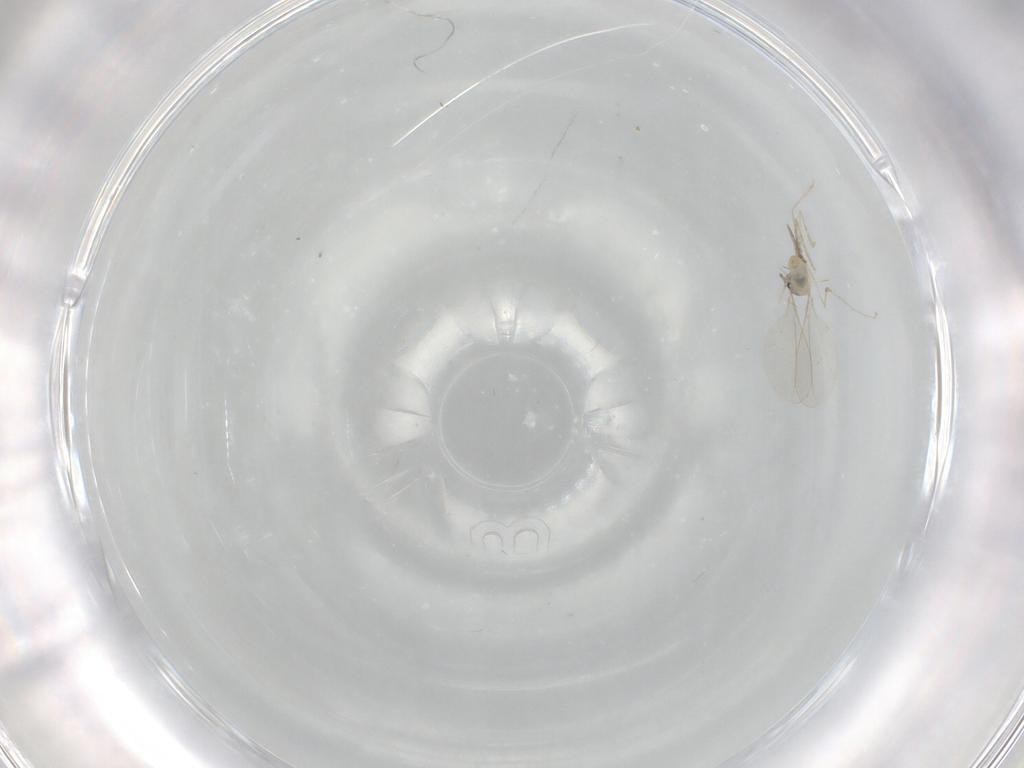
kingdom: Animalia
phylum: Arthropoda
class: Insecta
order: Diptera
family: Ceratopogonidae
